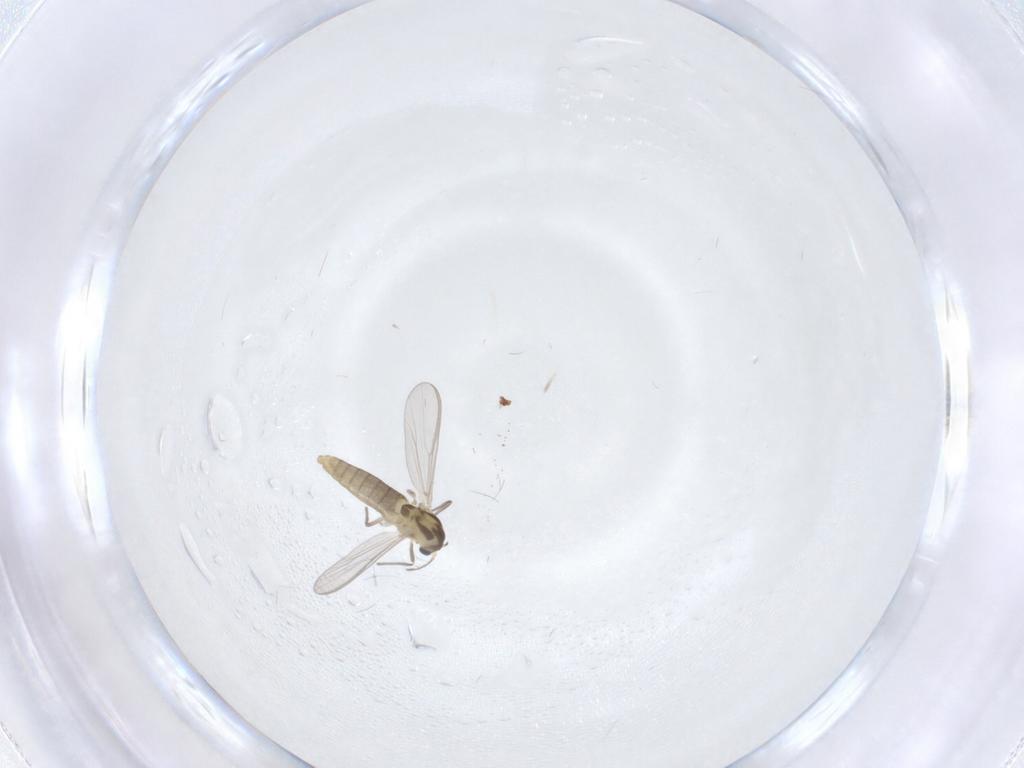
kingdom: Animalia
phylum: Arthropoda
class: Insecta
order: Diptera
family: Chironomidae
